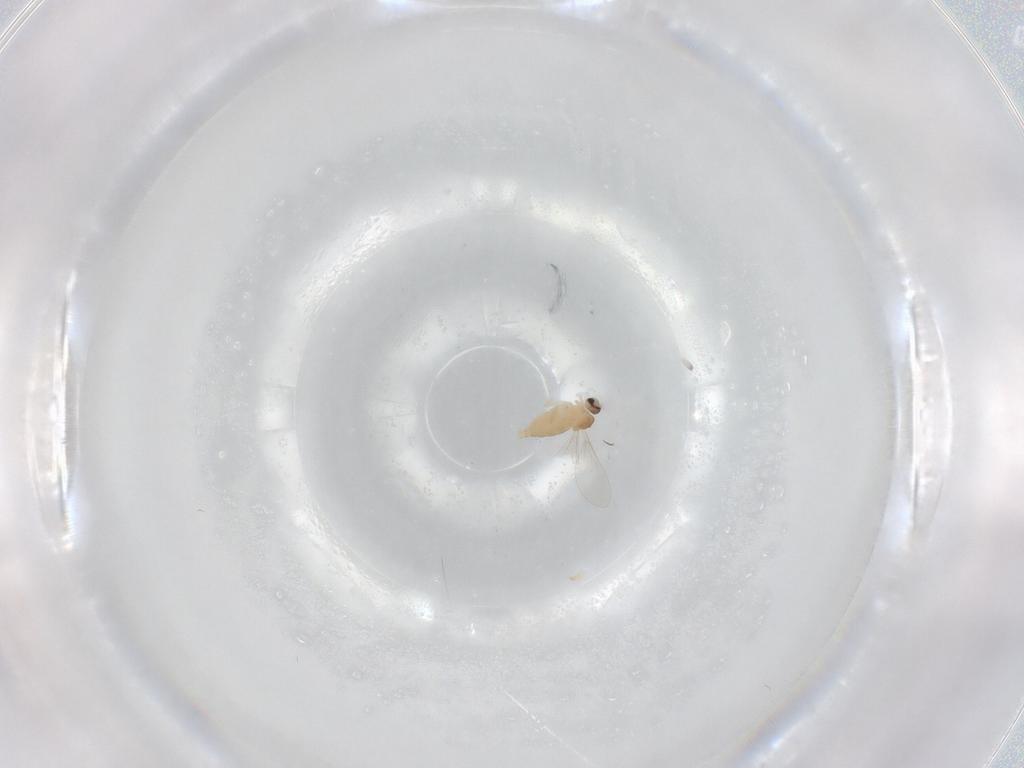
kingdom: Animalia
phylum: Arthropoda
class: Insecta
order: Diptera
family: Cecidomyiidae
